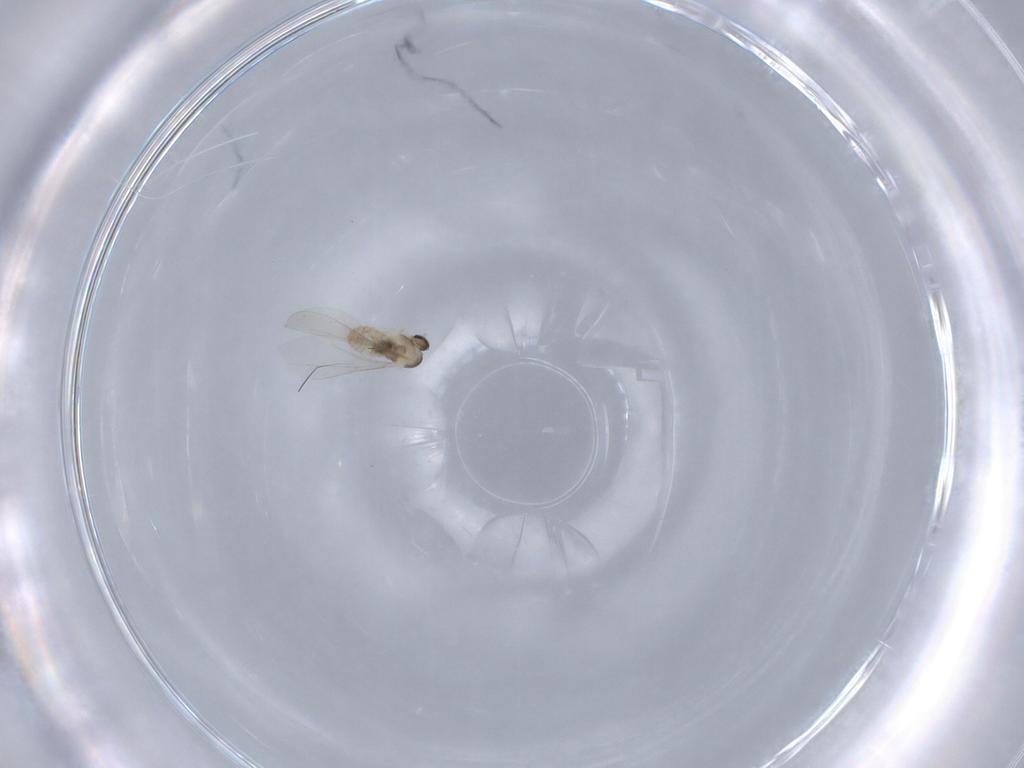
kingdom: Animalia
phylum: Arthropoda
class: Insecta
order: Diptera
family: Cecidomyiidae
